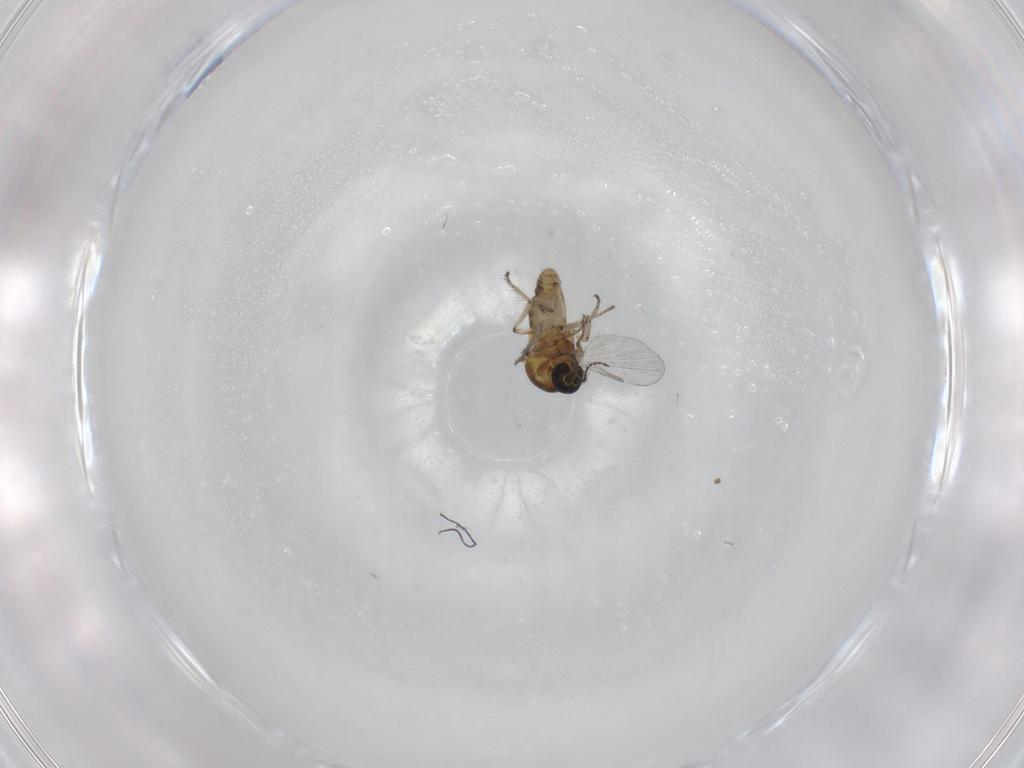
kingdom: Animalia
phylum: Arthropoda
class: Insecta
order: Diptera
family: Ceratopogonidae
